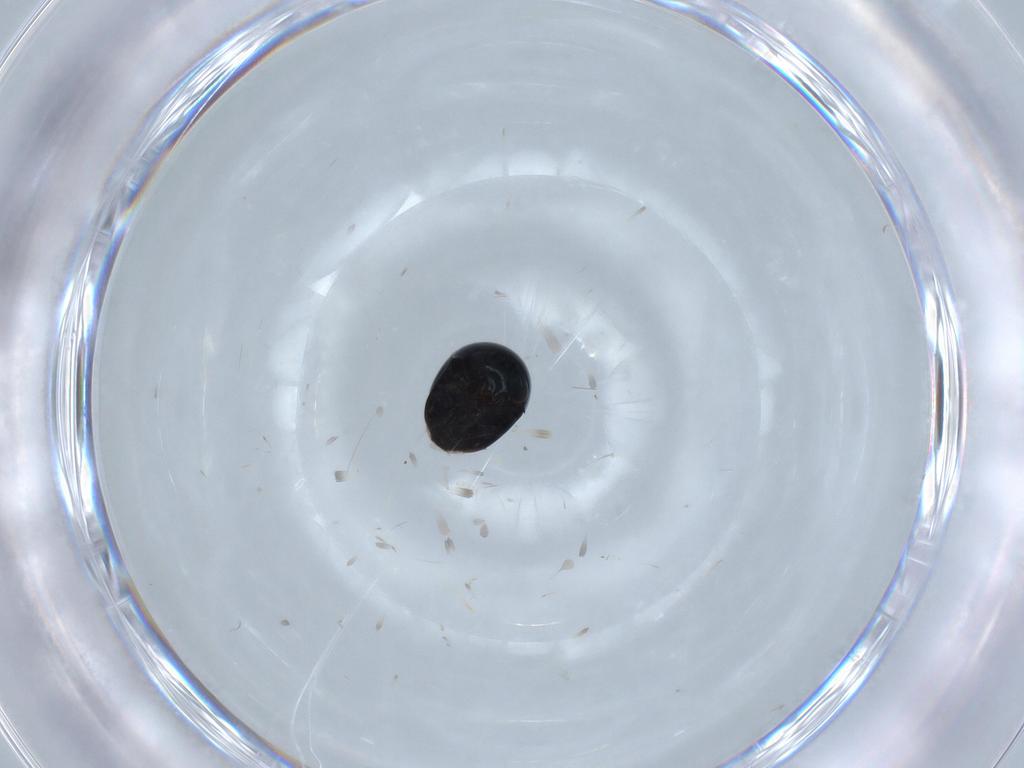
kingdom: Animalia
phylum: Arthropoda
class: Insecta
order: Coleoptera
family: Cybocephalidae
